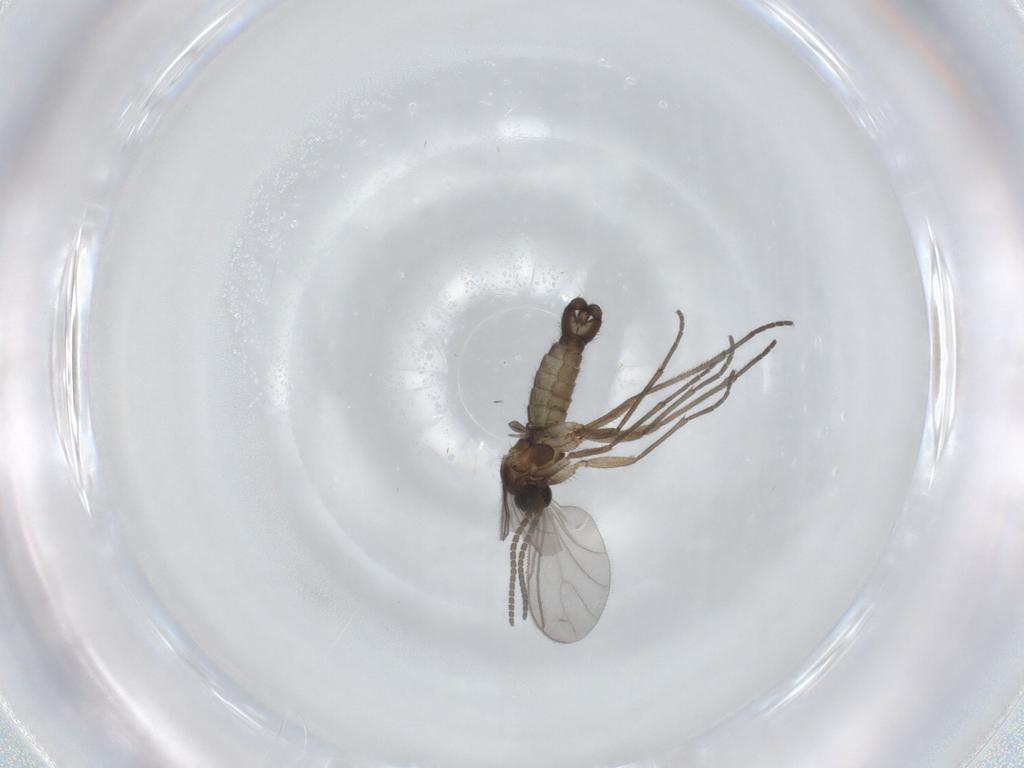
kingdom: Animalia
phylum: Arthropoda
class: Insecta
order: Diptera
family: Sciaridae
